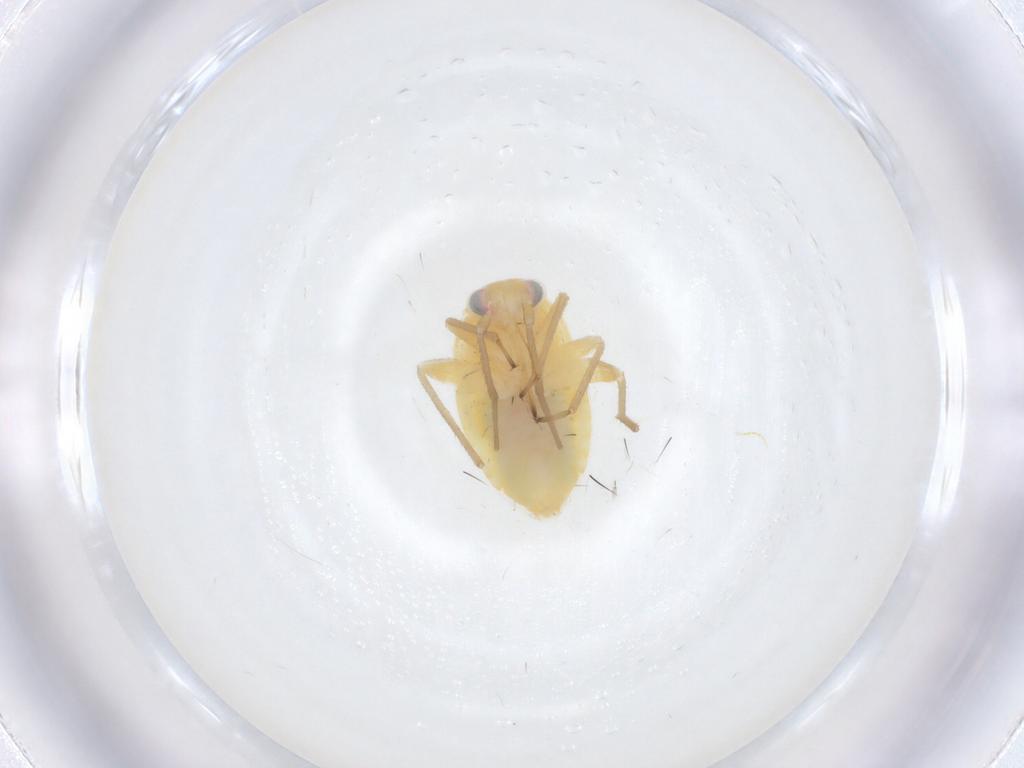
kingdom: Animalia
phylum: Arthropoda
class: Insecta
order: Hemiptera
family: Miridae
